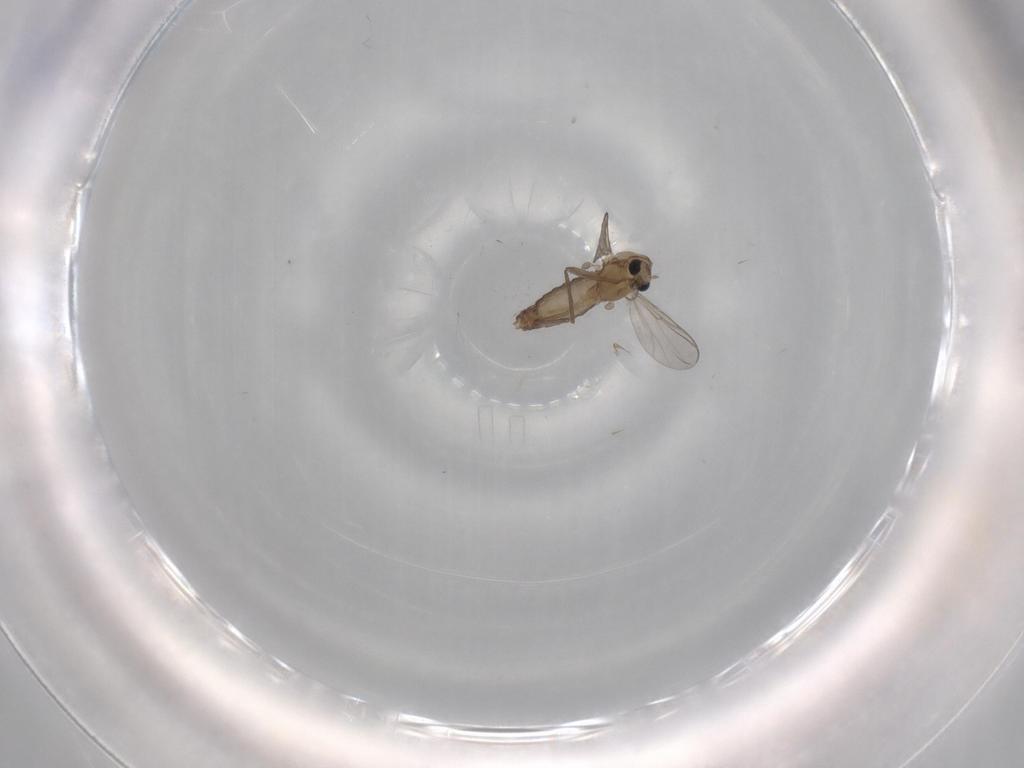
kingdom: Animalia
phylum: Arthropoda
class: Insecta
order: Diptera
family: Chironomidae
